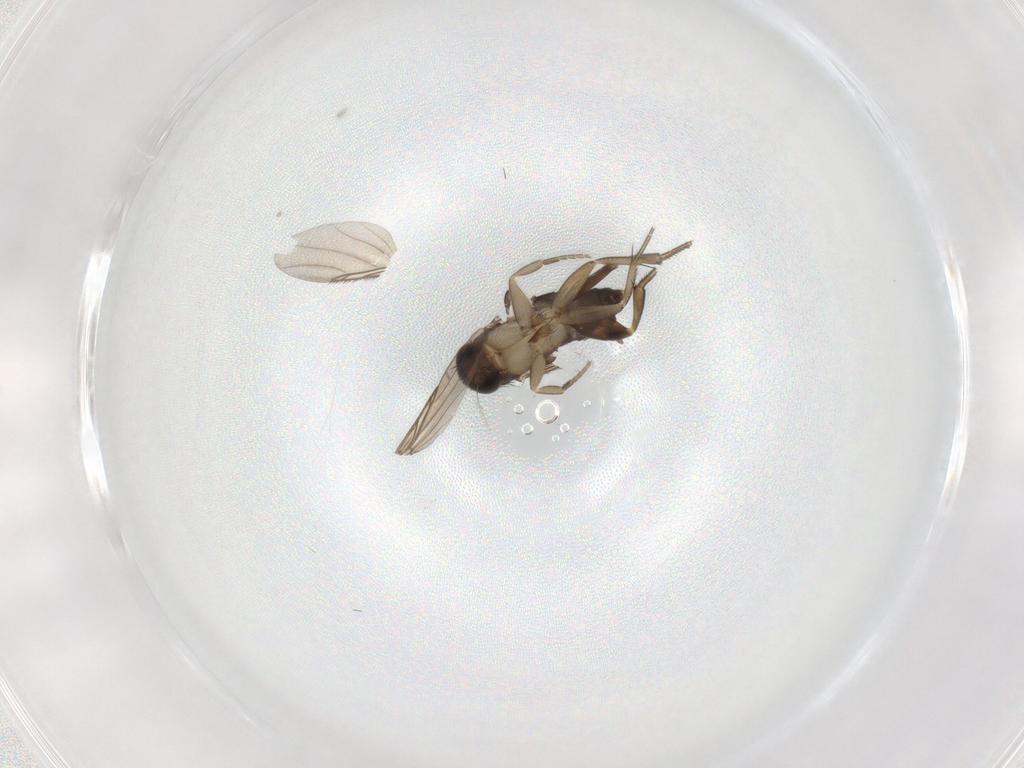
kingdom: Animalia
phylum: Arthropoda
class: Insecta
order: Diptera
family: Phoridae
